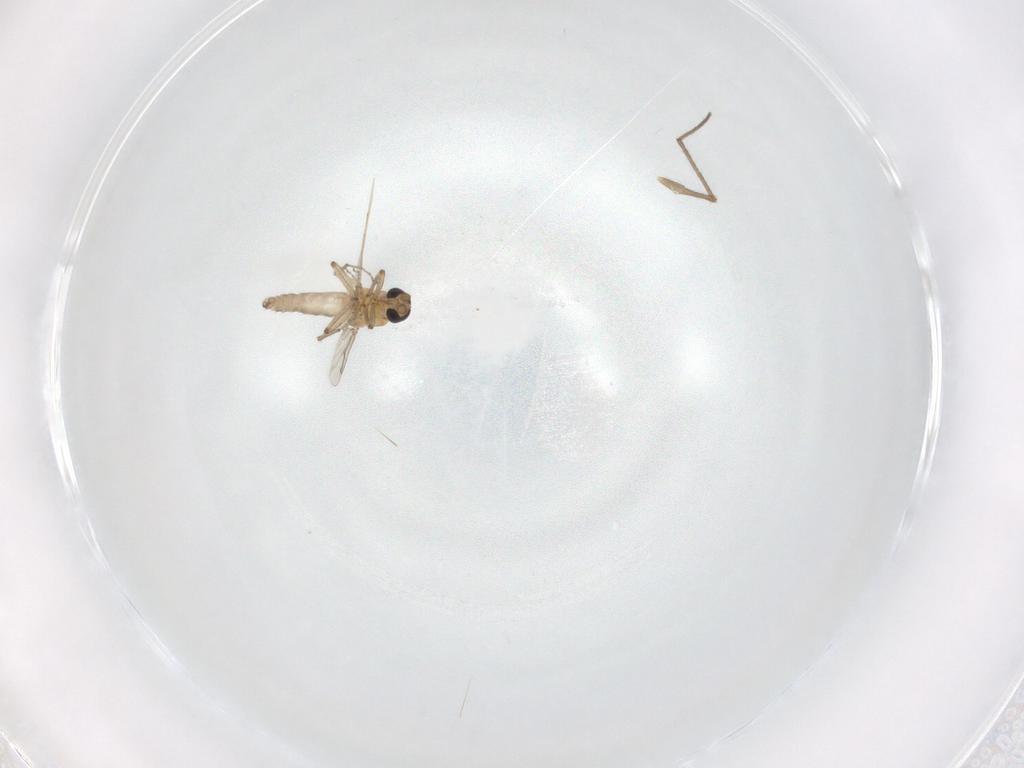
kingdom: Animalia
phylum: Arthropoda
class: Insecta
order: Diptera
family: Ceratopogonidae
